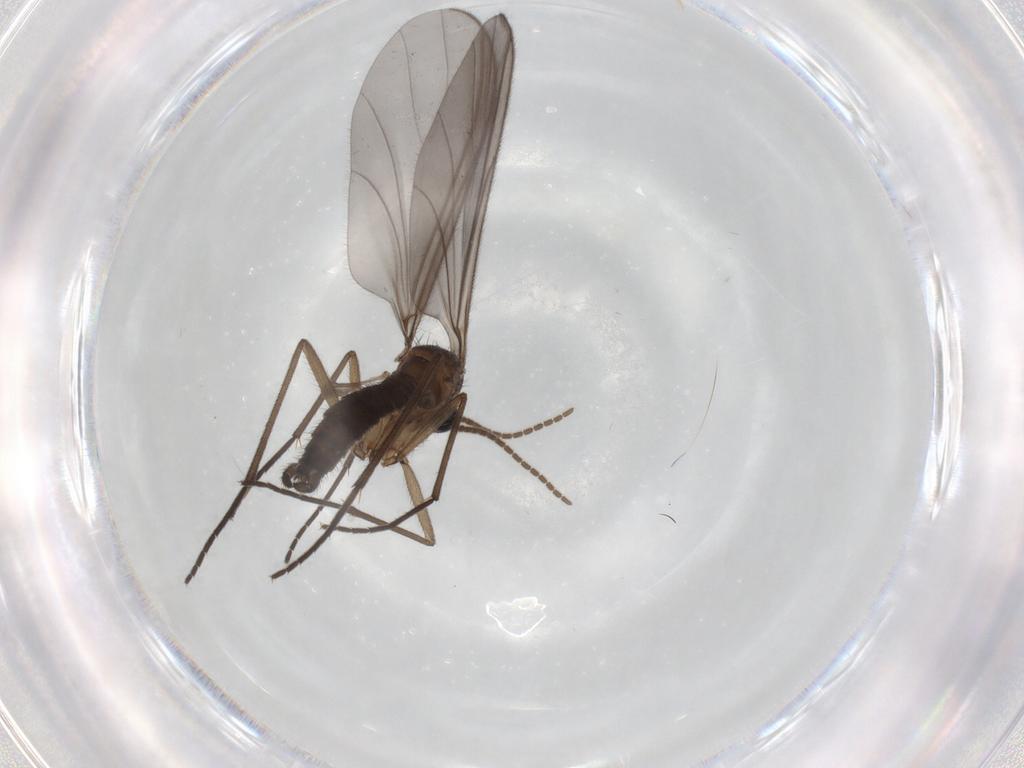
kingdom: Animalia
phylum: Arthropoda
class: Insecta
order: Diptera
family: Sciaridae
